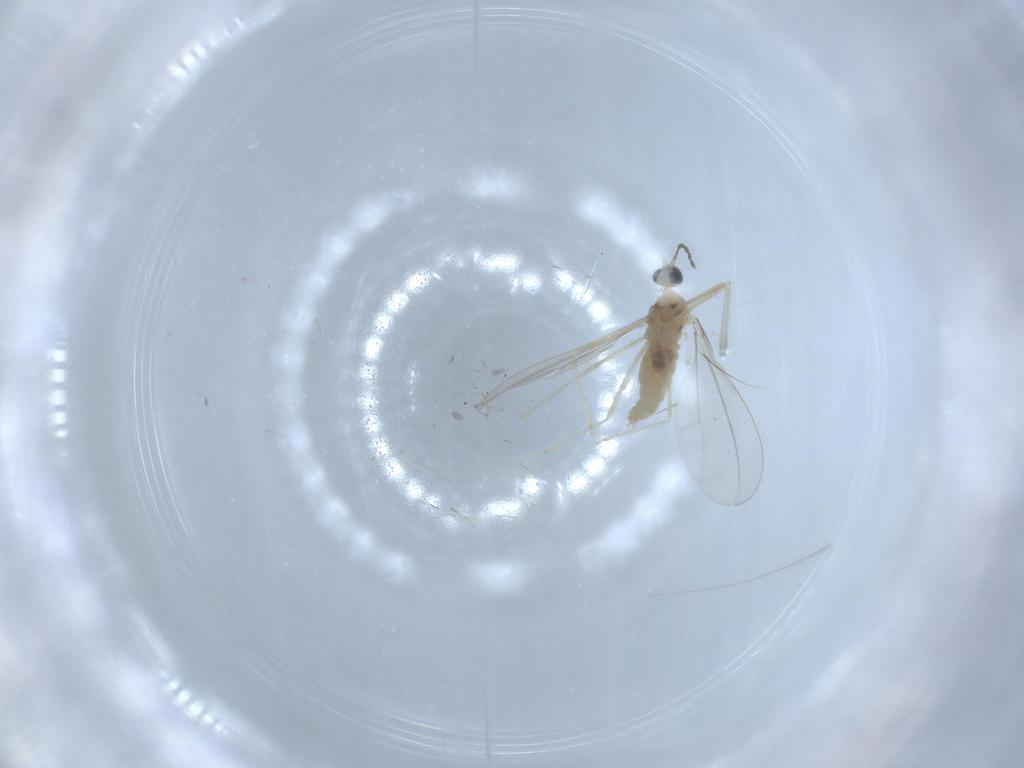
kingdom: Animalia
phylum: Arthropoda
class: Insecta
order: Diptera
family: Cecidomyiidae
